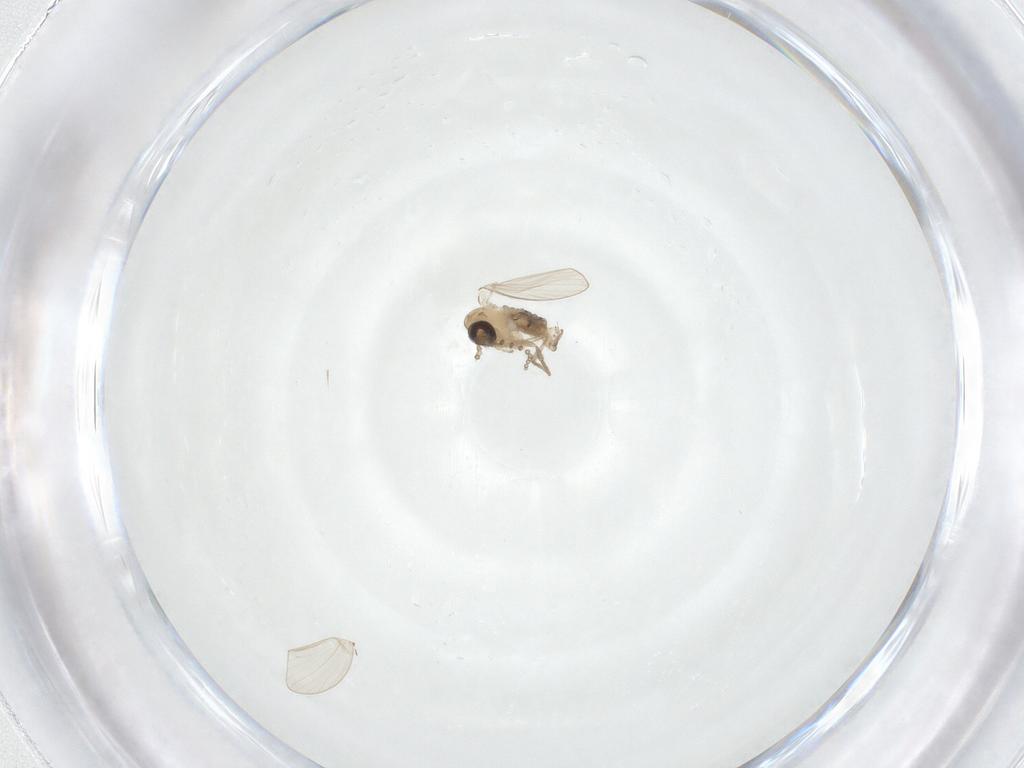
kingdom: Animalia
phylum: Arthropoda
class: Insecta
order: Diptera
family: Psychodidae
